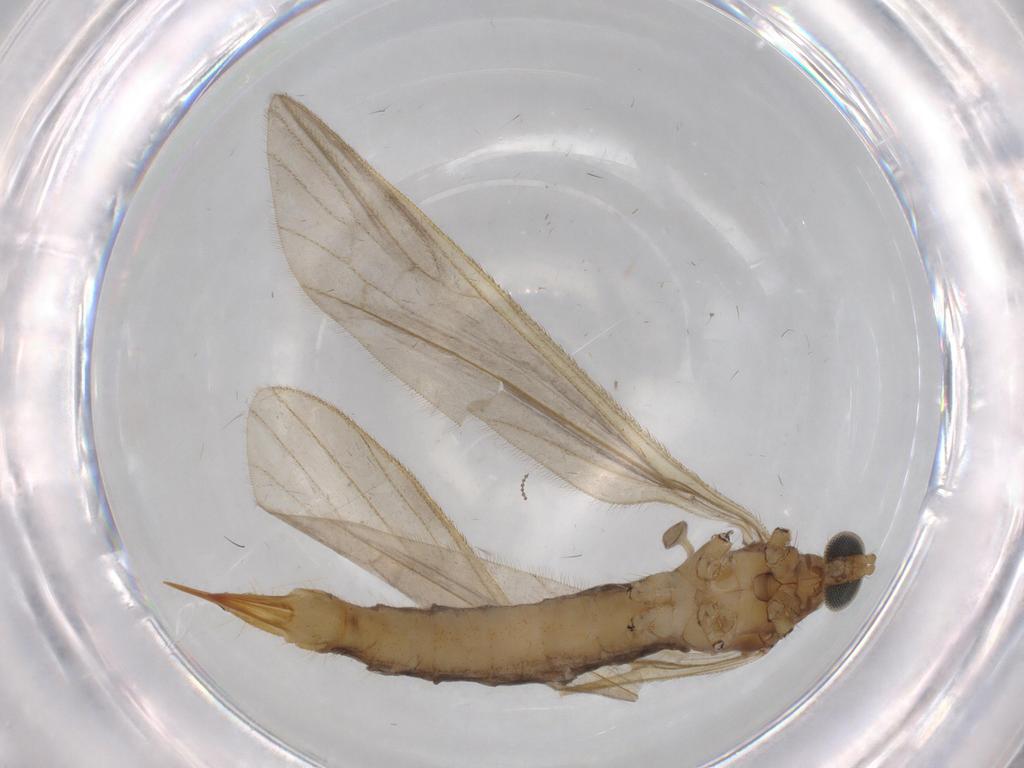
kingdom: Animalia
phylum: Arthropoda
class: Insecta
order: Diptera
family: Limoniidae
